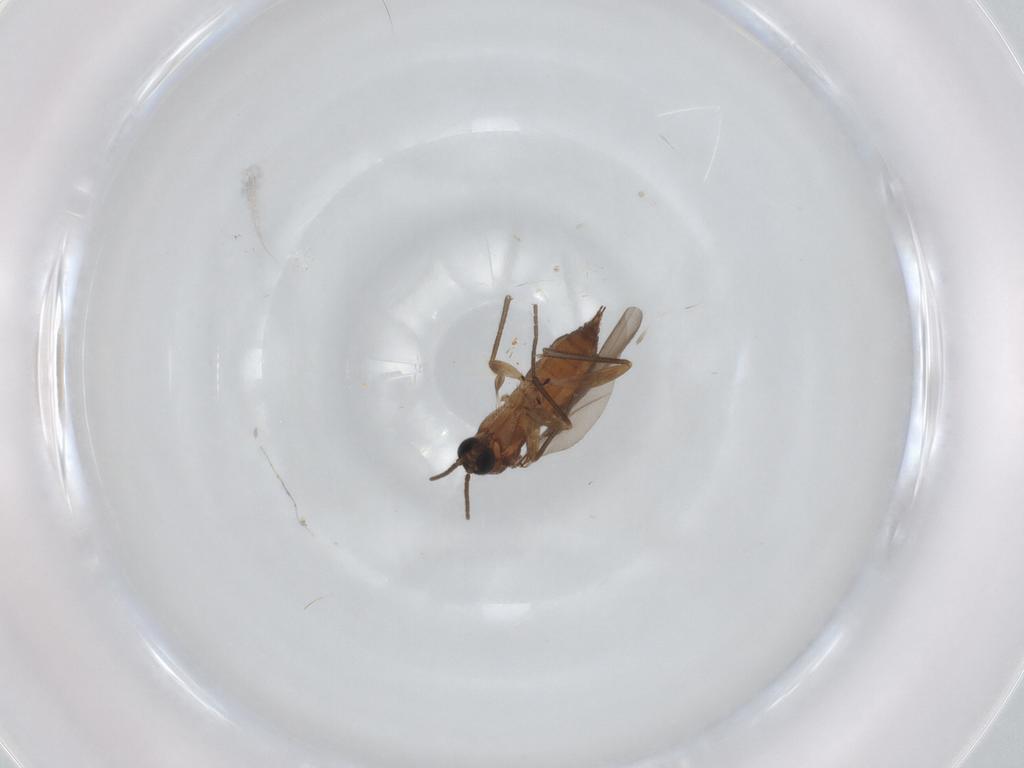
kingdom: Animalia
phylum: Arthropoda
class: Insecta
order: Diptera
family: Sciaridae
